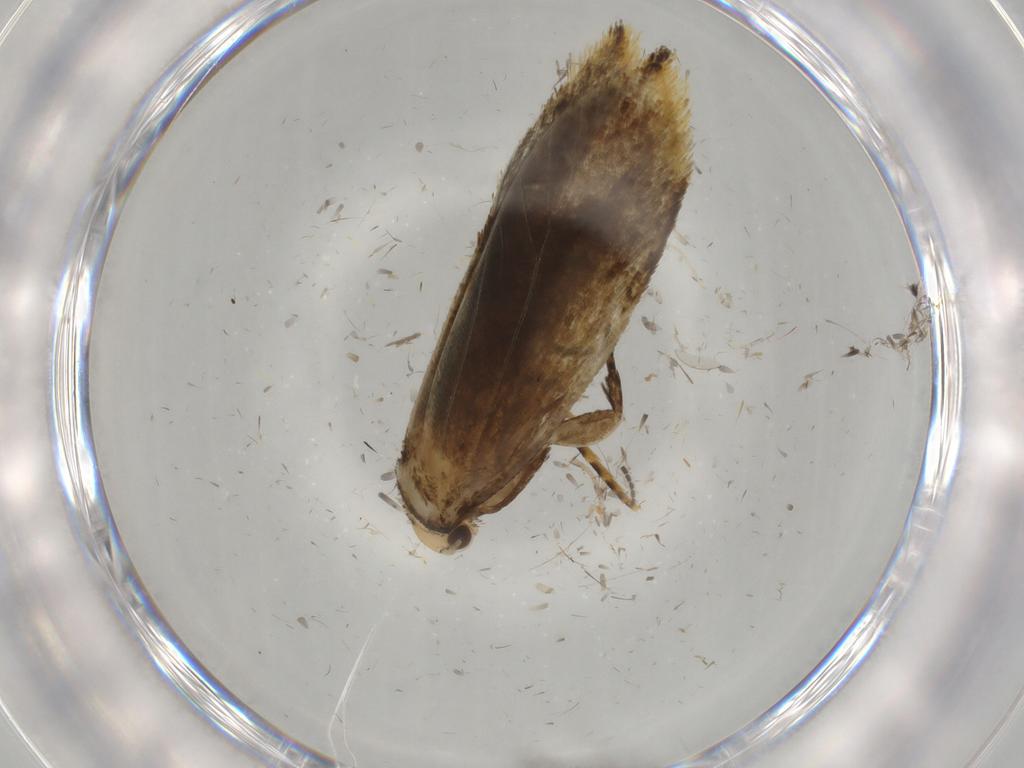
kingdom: Animalia
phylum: Arthropoda
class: Insecta
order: Lepidoptera
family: Pieridae
